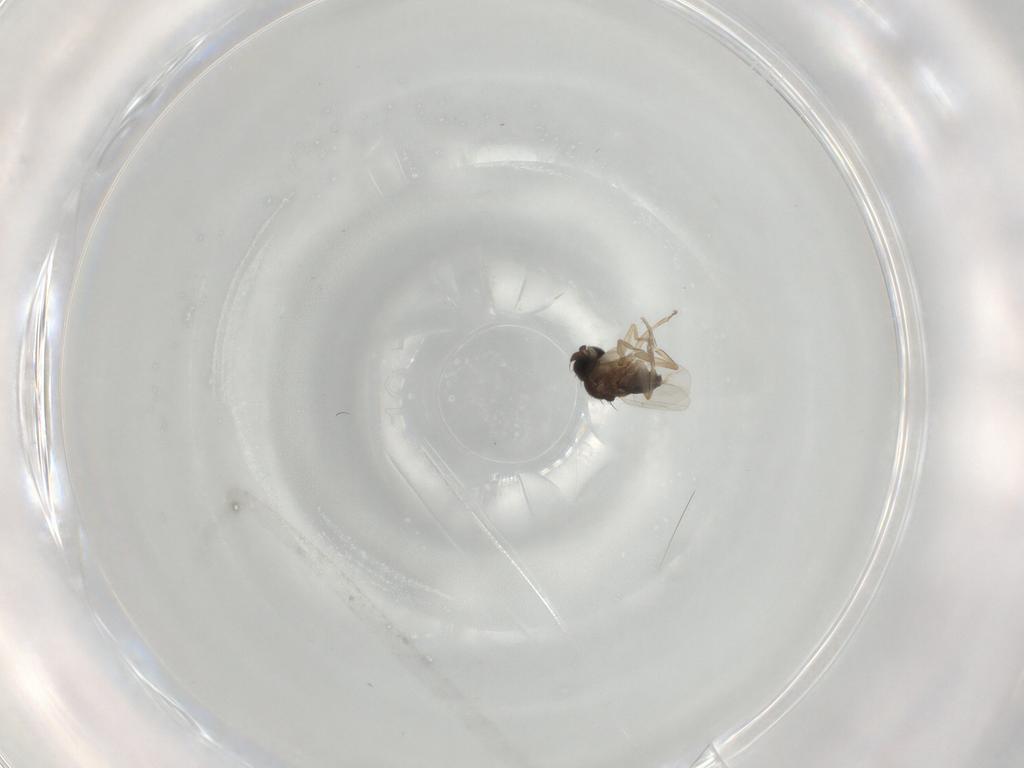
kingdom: Animalia
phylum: Arthropoda
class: Insecta
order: Diptera
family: Phoridae
